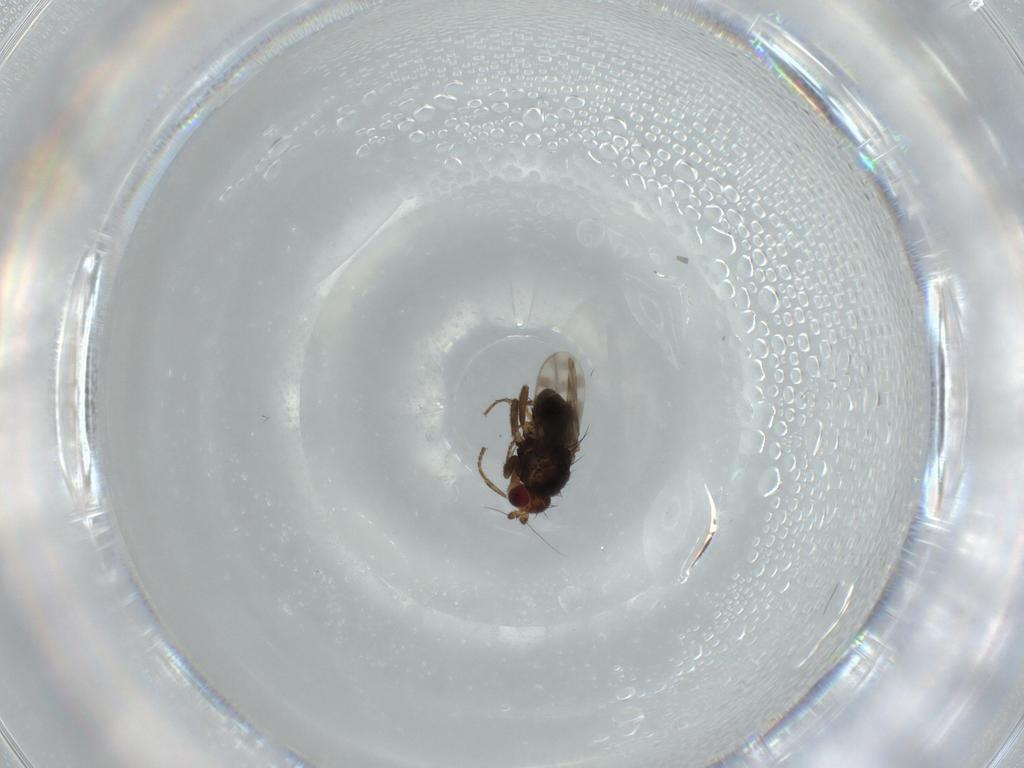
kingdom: Animalia
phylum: Arthropoda
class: Insecta
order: Diptera
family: Sphaeroceridae
